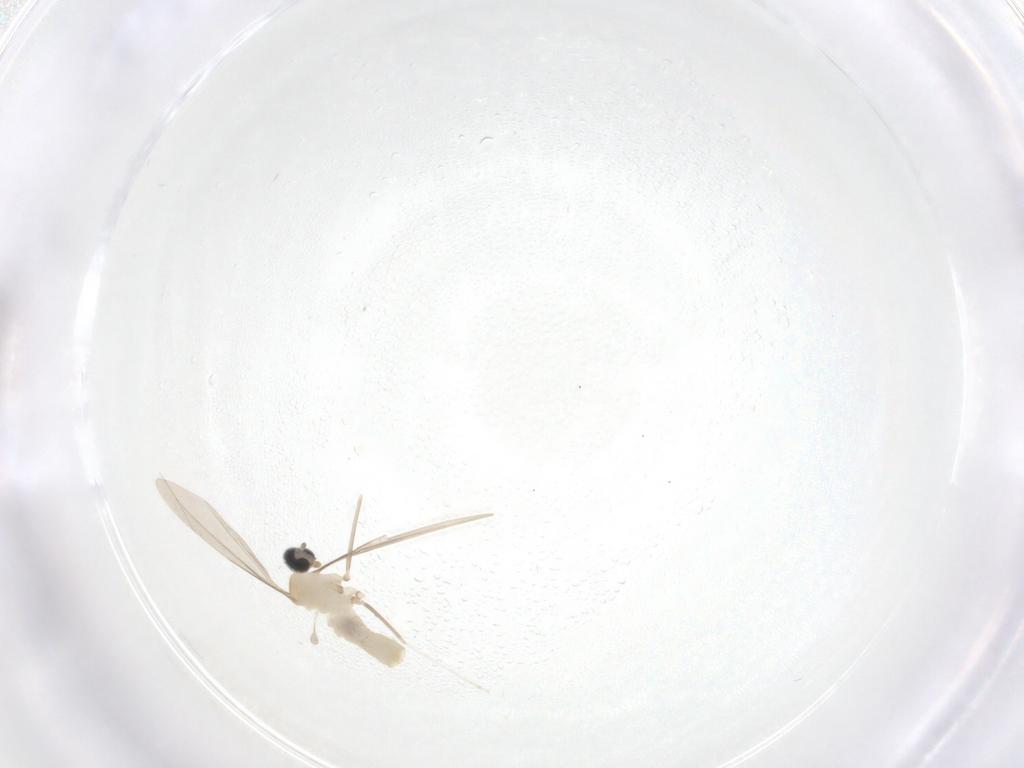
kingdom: Animalia
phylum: Arthropoda
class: Insecta
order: Diptera
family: Cecidomyiidae
